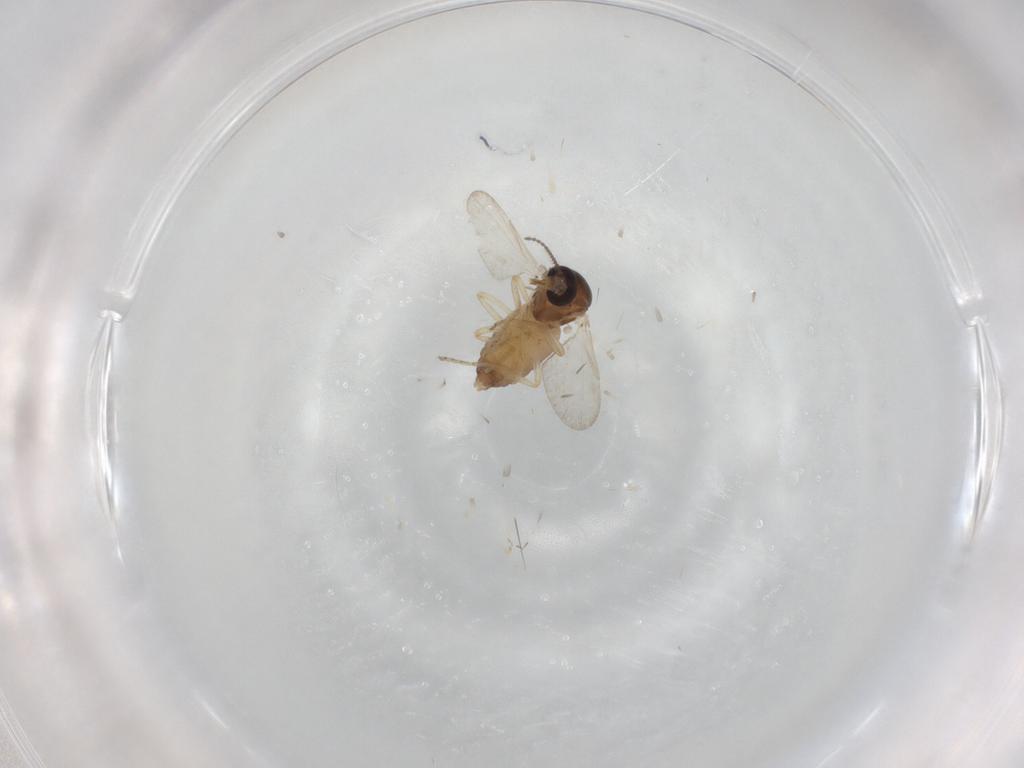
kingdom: Animalia
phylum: Arthropoda
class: Insecta
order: Diptera
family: Ceratopogonidae
